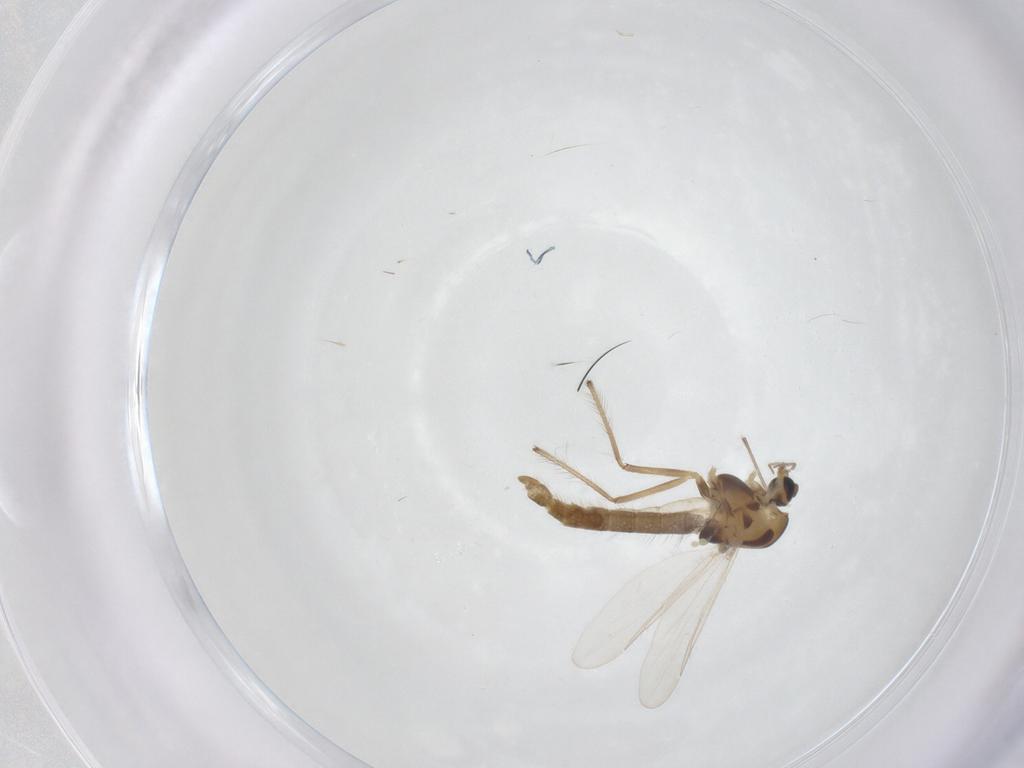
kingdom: Animalia
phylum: Arthropoda
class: Insecta
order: Diptera
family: Chironomidae
